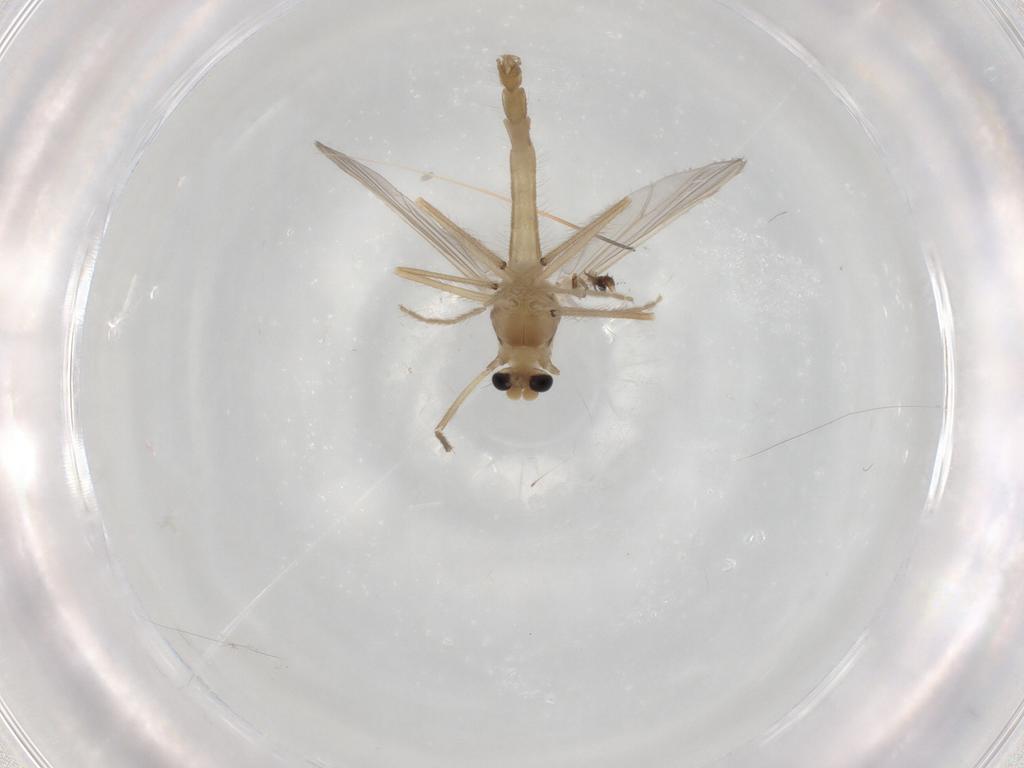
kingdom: Animalia
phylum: Arthropoda
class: Insecta
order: Diptera
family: Chironomidae
